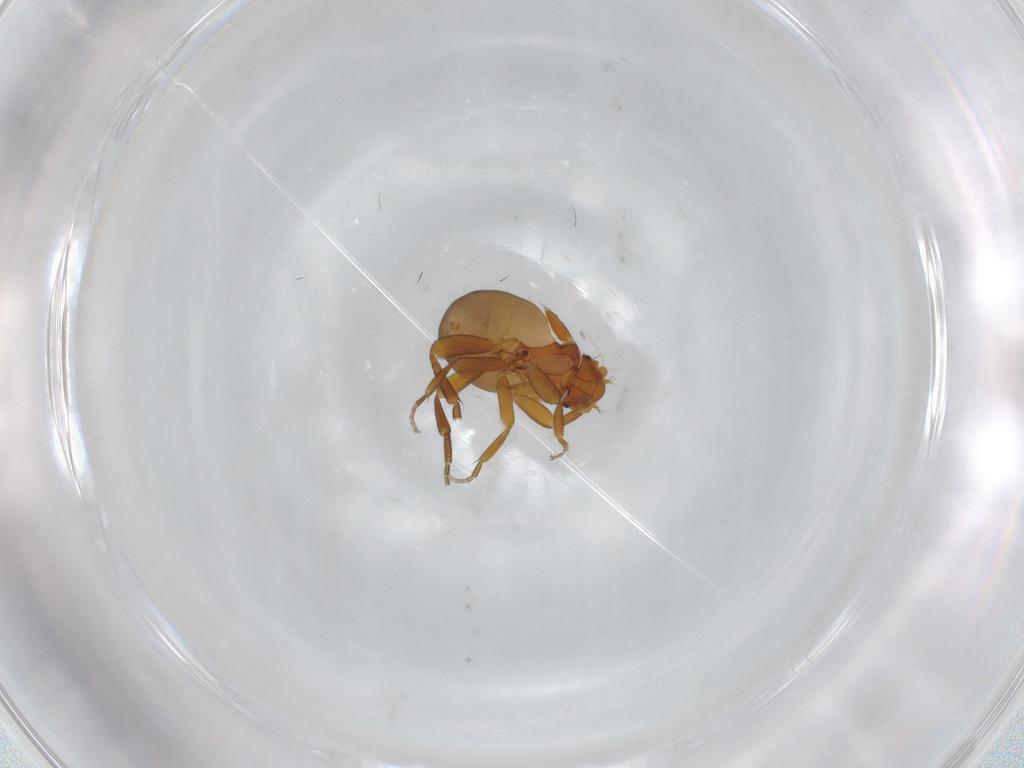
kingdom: Animalia
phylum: Arthropoda
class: Insecta
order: Diptera
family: Phoridae
